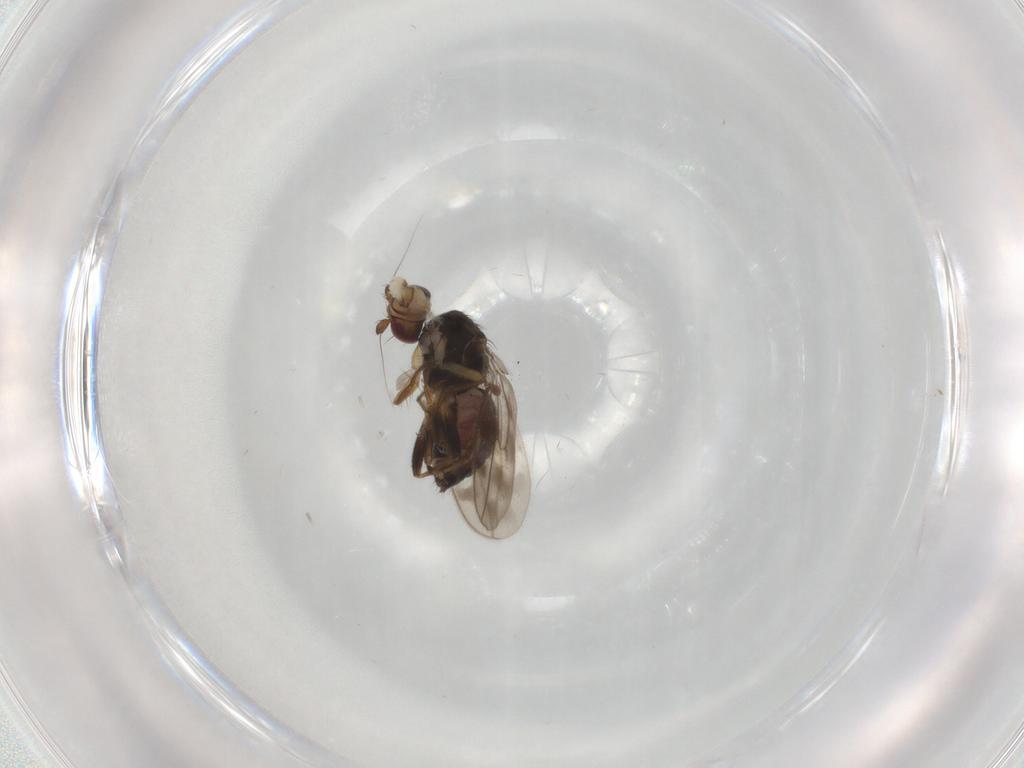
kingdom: Animalia
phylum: Arthropoda
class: Insecta
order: Diptera
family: Sphaeroceridae
